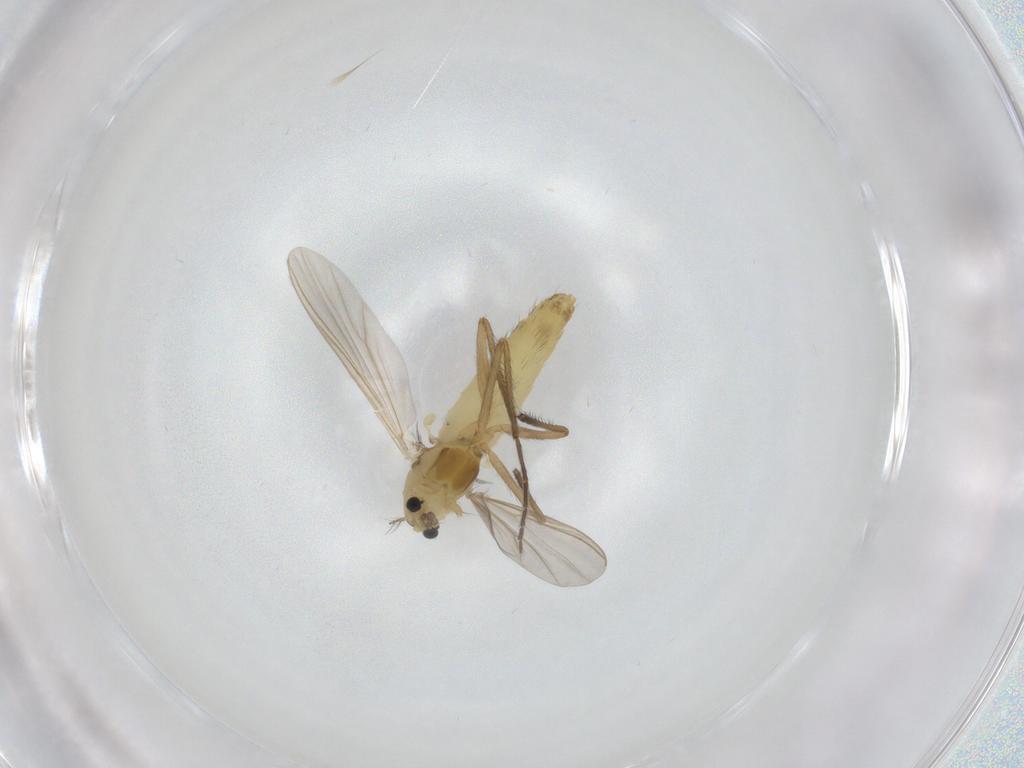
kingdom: Animalia
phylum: Arthropoda
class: Insecta
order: Diptera
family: Chironomidae
